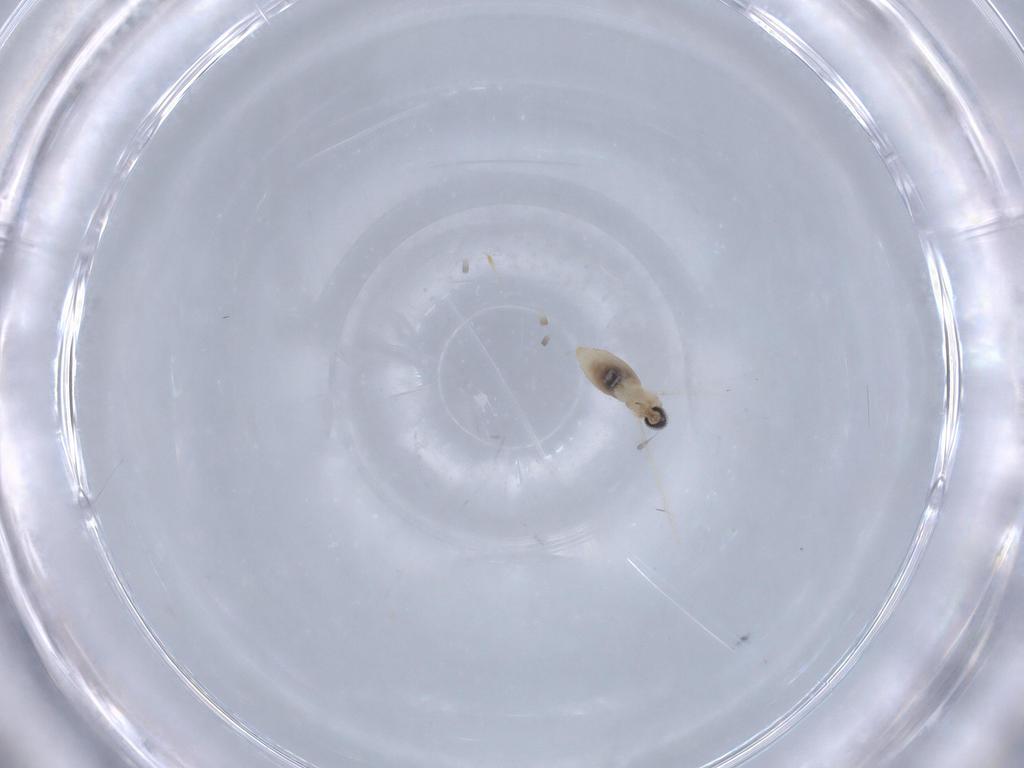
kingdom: Animalia
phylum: Arthropoda
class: Insecta
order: Diptera
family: Cecidomyiidae
